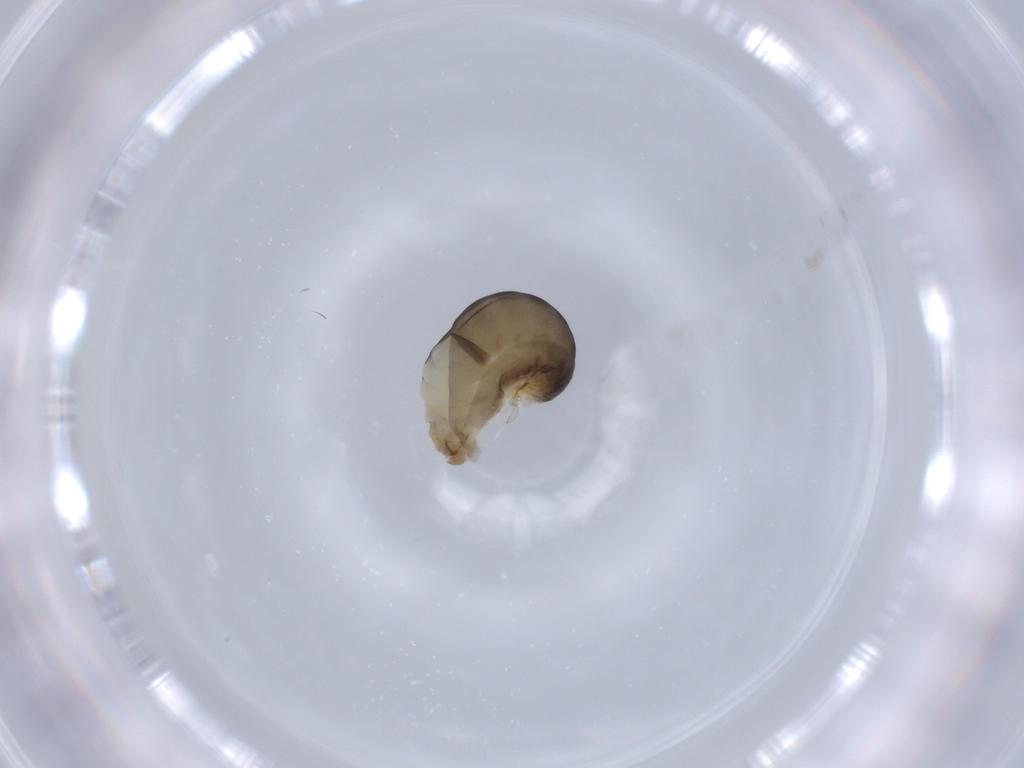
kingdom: Animalia
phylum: Arthropoda
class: Insecta
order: Hymenoptera
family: Dryinidae
